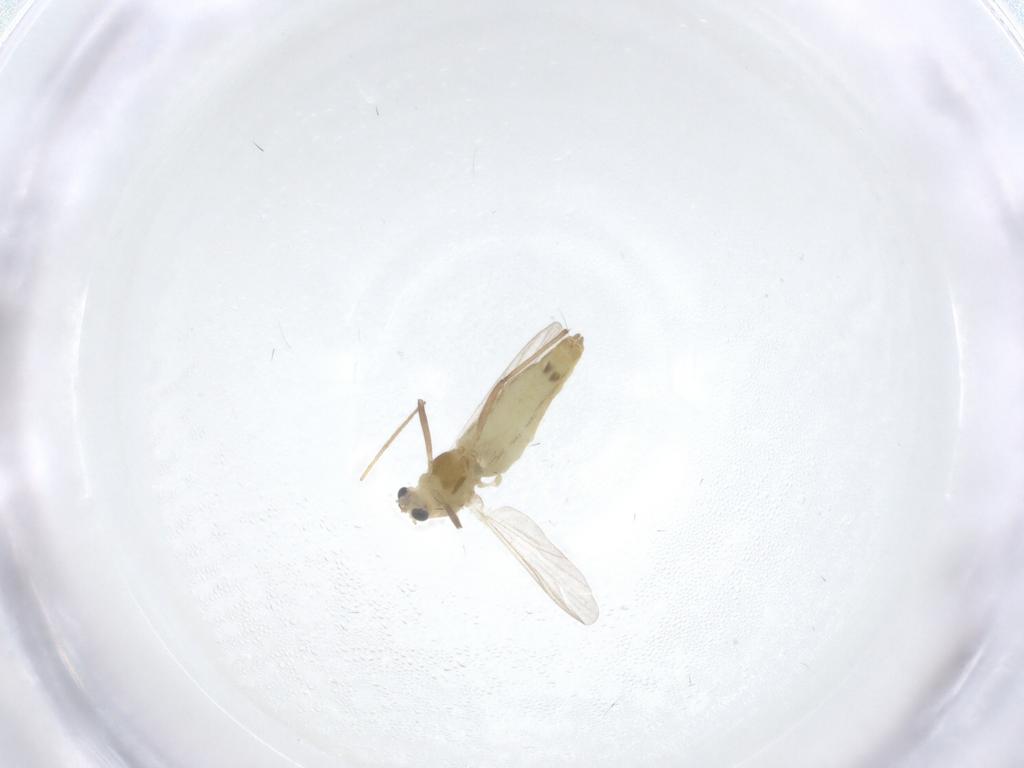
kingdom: Animalia
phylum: Arthropoda
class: Insecta
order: Diptera
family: Chironomidae
